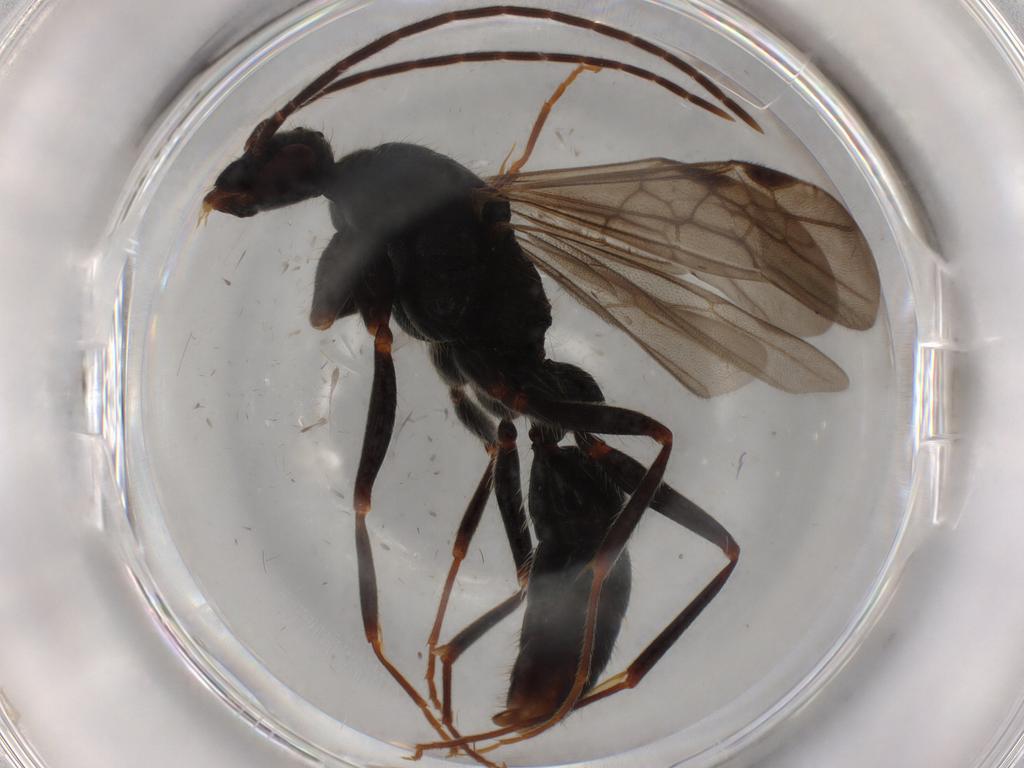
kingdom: Animalia
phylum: Arthropoda
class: Insecta
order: Hymenoptera
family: Formicidae
